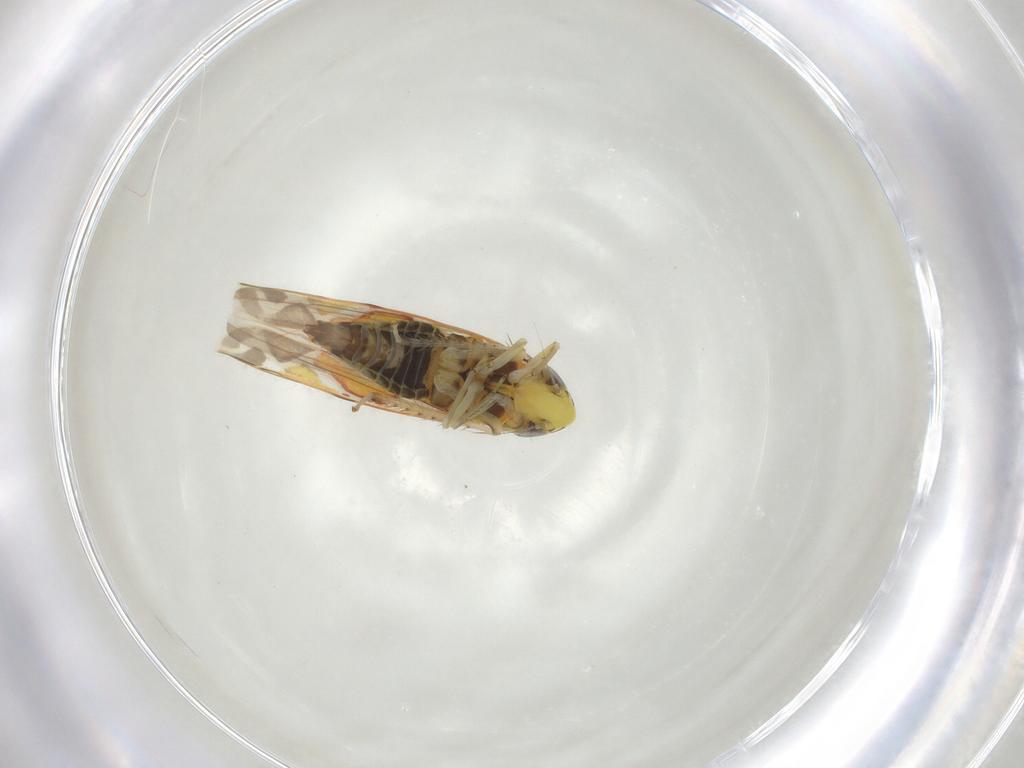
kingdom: Animalia
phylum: Arthropoda
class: Insecta
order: Hemiptera
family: Cicadellidae
